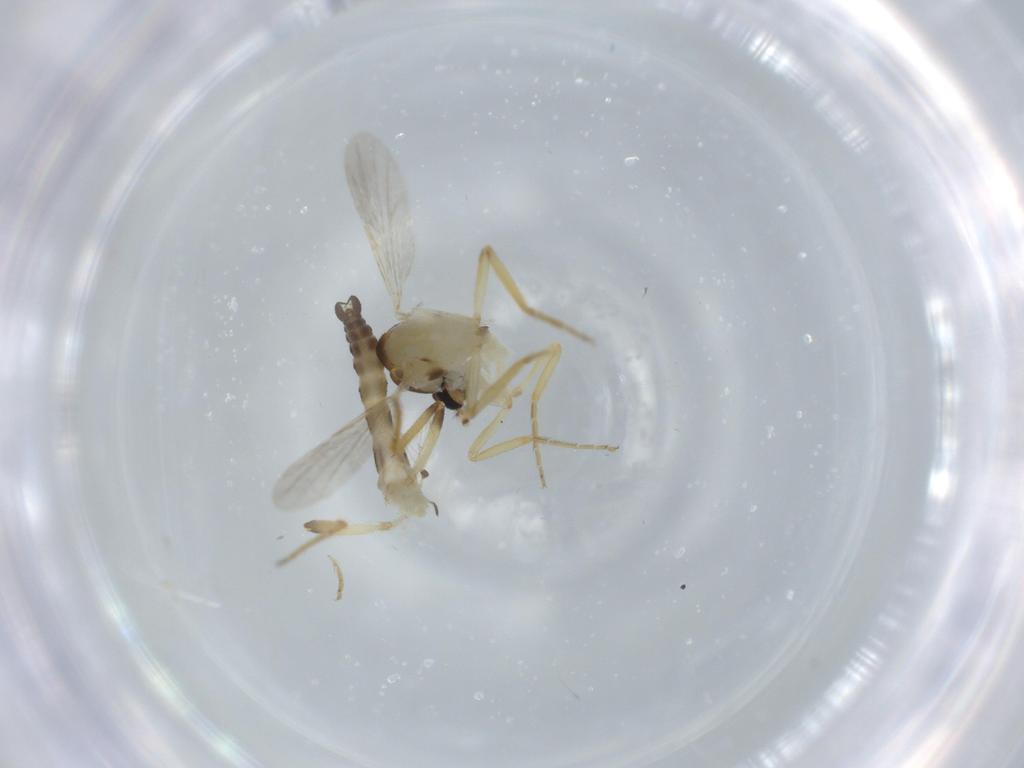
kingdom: Animalia
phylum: Arthropoda
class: Insecta
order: Diptera
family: Ceratopogonidae
